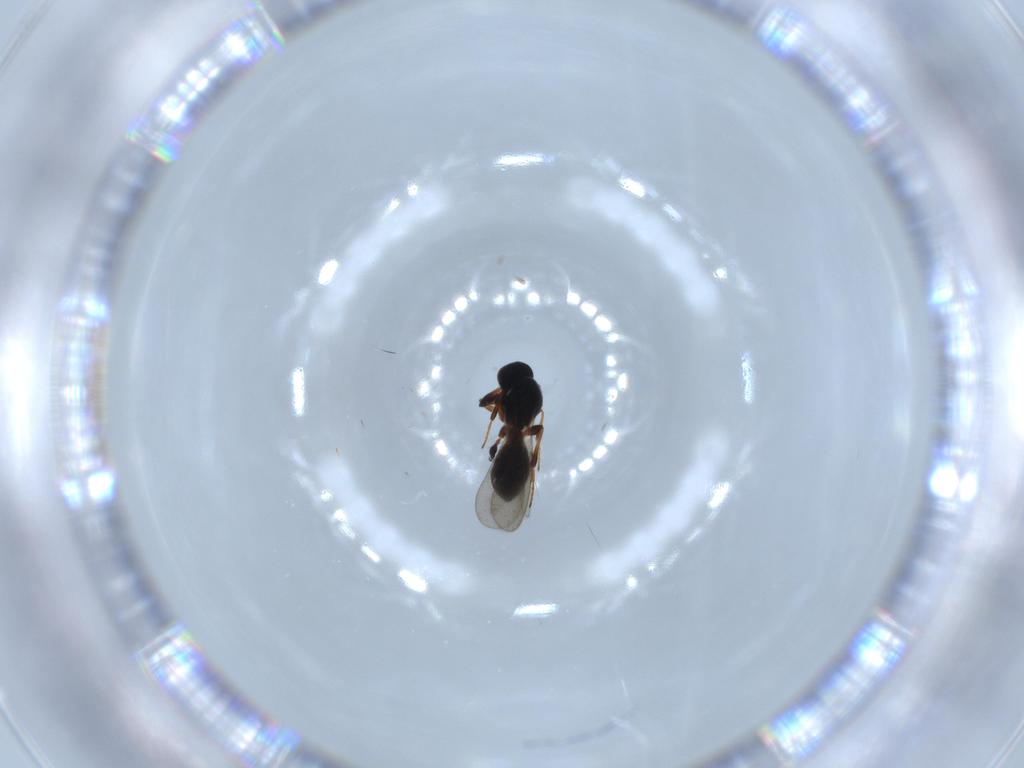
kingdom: Animalia
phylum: Arthropoda
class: Insecta
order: Hymenoptera
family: Platygastridae
